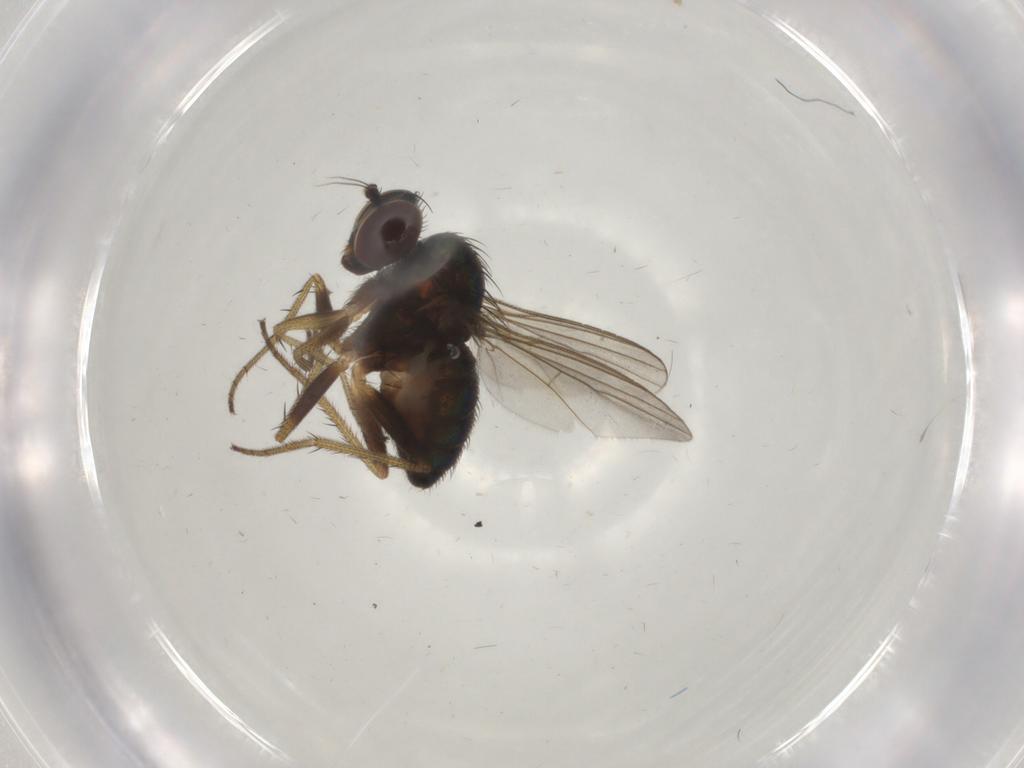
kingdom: Animalia
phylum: Arthropoda
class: Insecta
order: Diptera
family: Dolichopodidae
